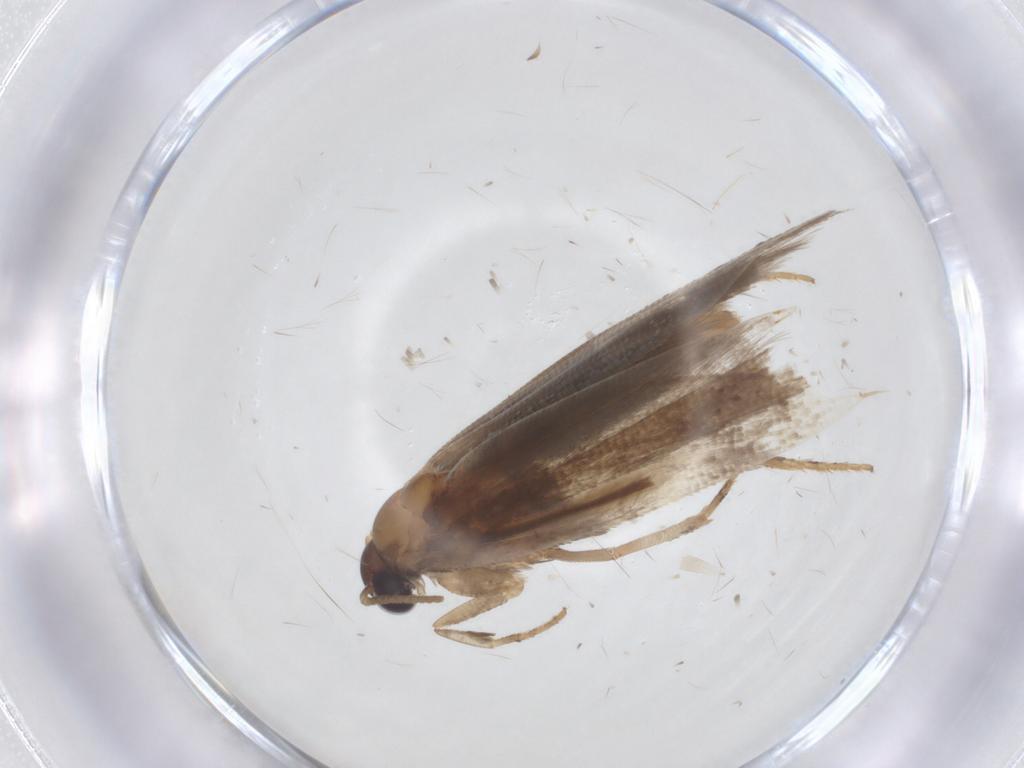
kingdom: Animalia
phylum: Arthropoda
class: Insecta
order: Lepidoptera
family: Gelechiidae
